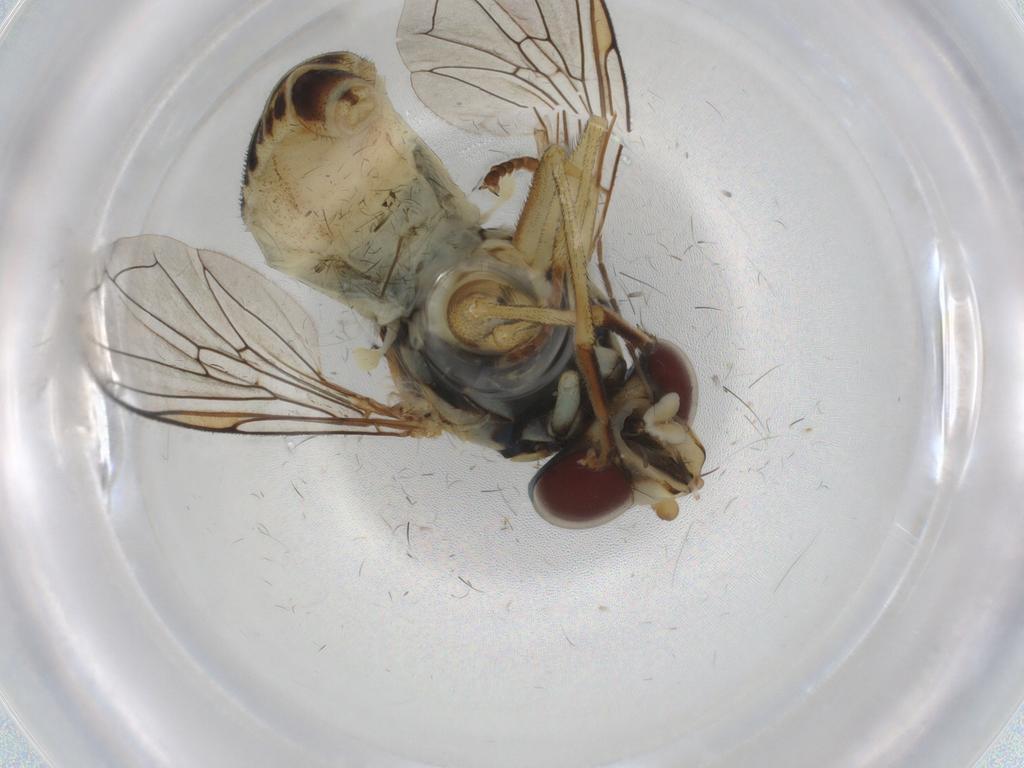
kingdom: Animalia
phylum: Arthropoda
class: Insecta
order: Diptera
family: Syrphidae
